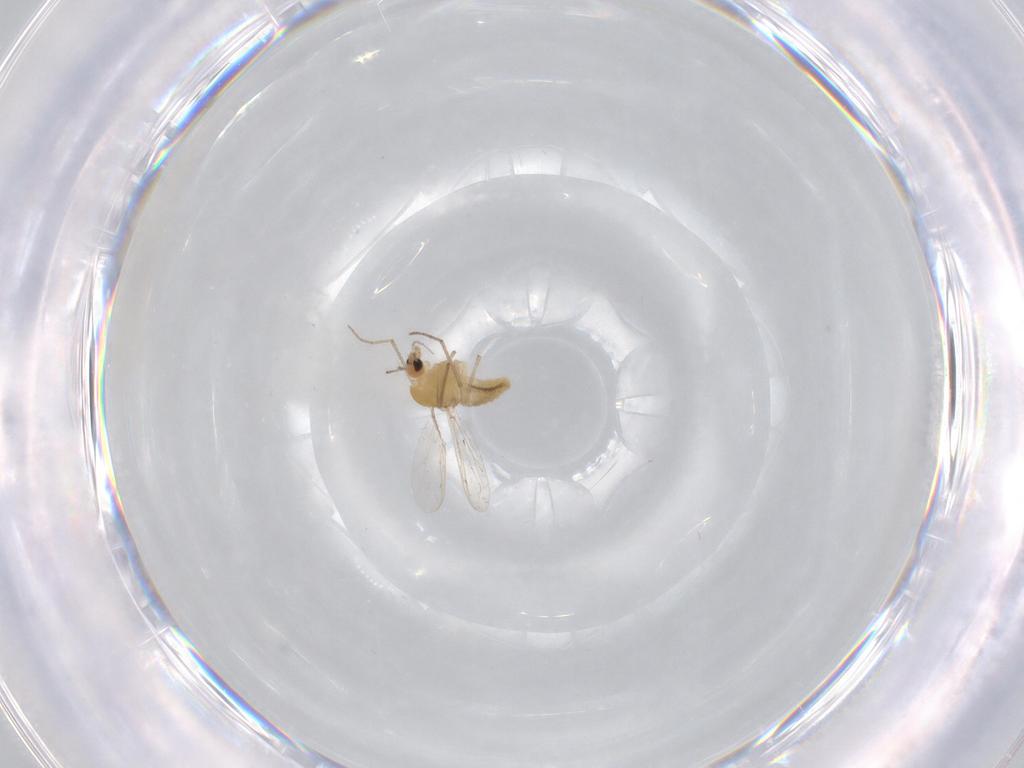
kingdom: Animalia
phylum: Arthropoda
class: Insecta
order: Diptera
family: Chironomidae
